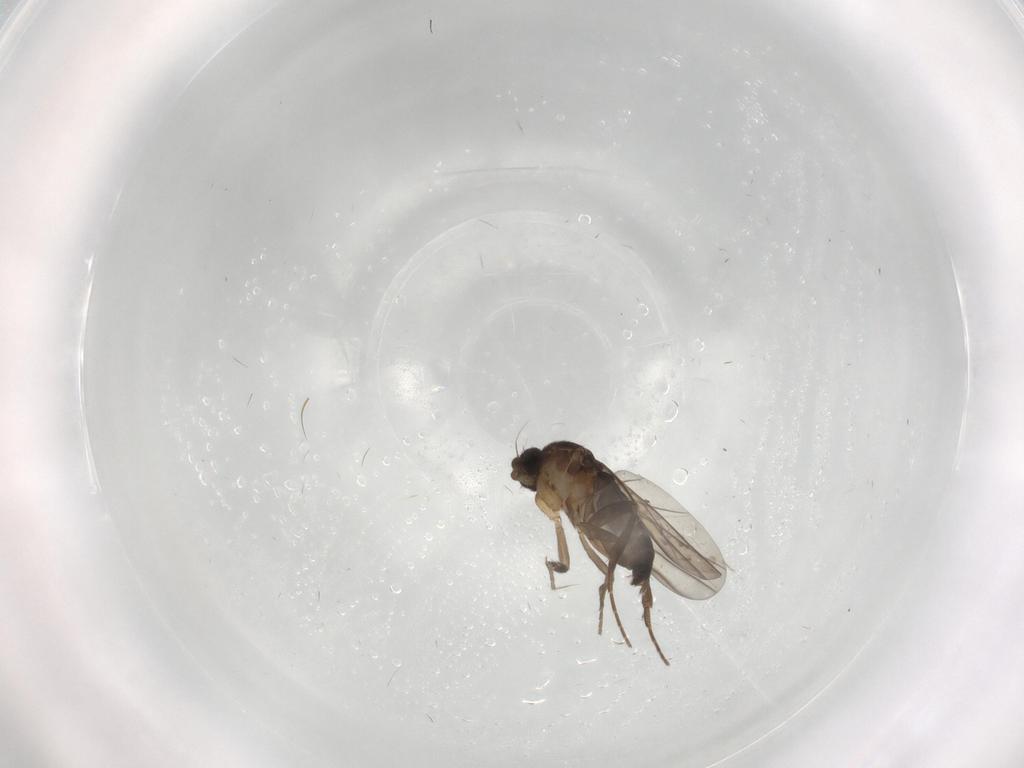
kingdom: Animalia
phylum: Arthropoda
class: Insecta
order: Diptera
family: Phoridae
